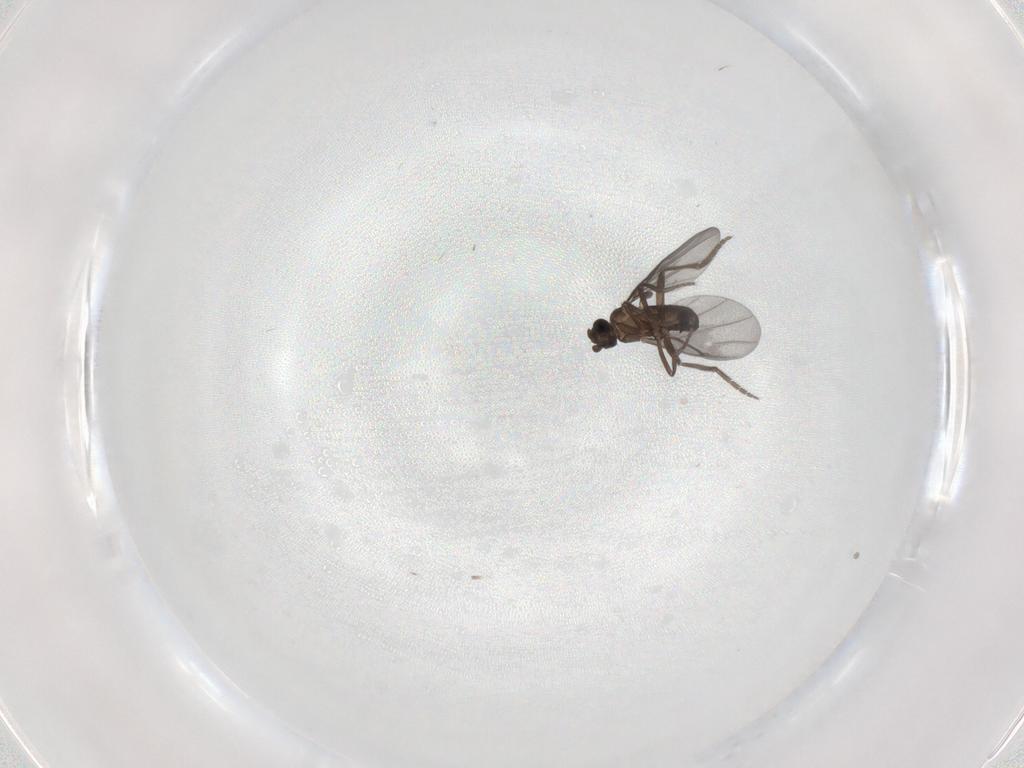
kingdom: Animalia
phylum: Arthropoda
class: Insecta
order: Diptera
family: Phoridae
